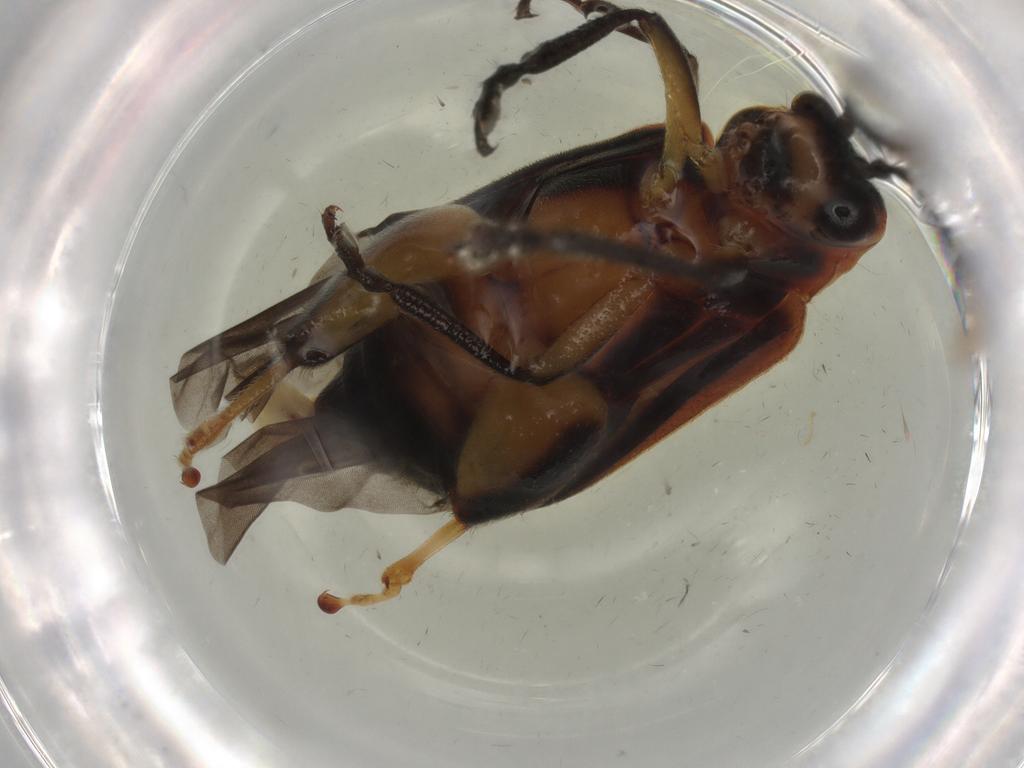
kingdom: Animalia
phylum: Arthropoda
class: Insecta
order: Coleoptera
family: Chrysomelidae
